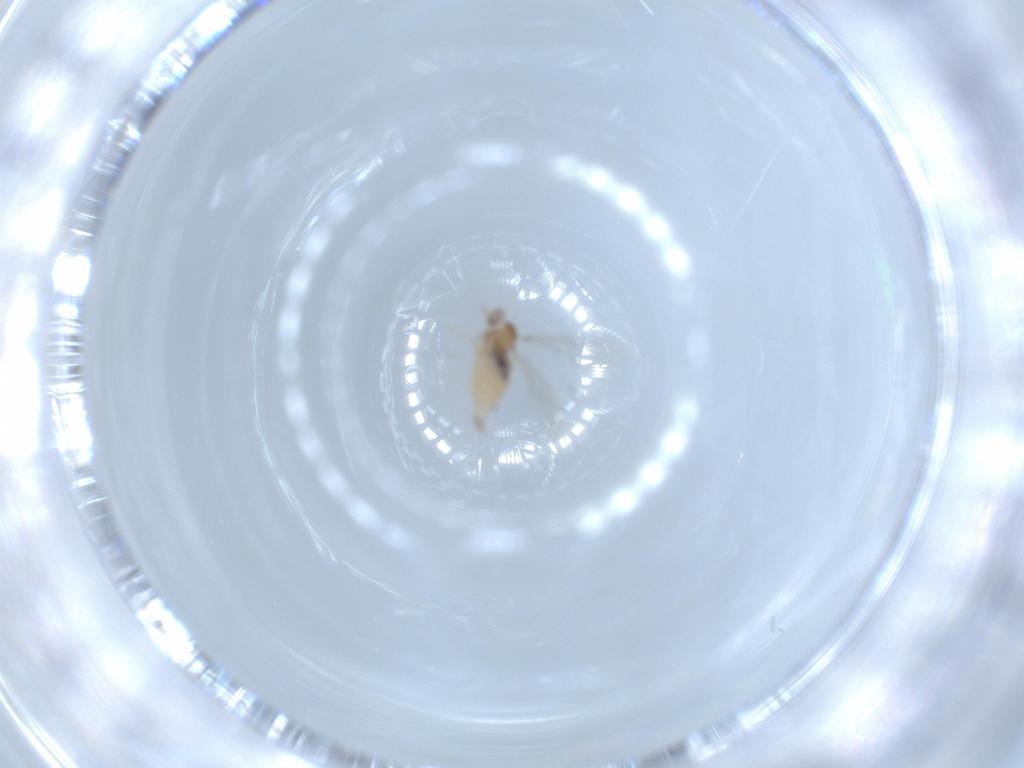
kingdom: Animalia
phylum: Arthropoda
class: Insecta
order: Diptera
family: Cecidomyiidae
